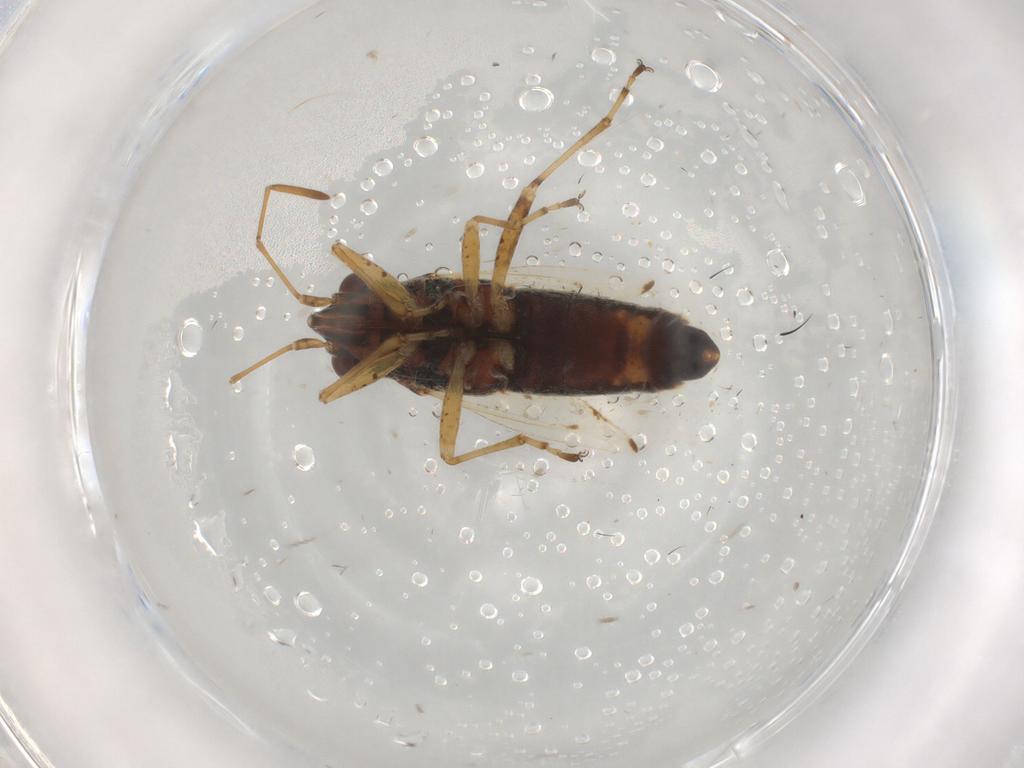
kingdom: Animalia
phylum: Arthropoda
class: Insecta
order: Hemiptera
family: Lygaeidae
